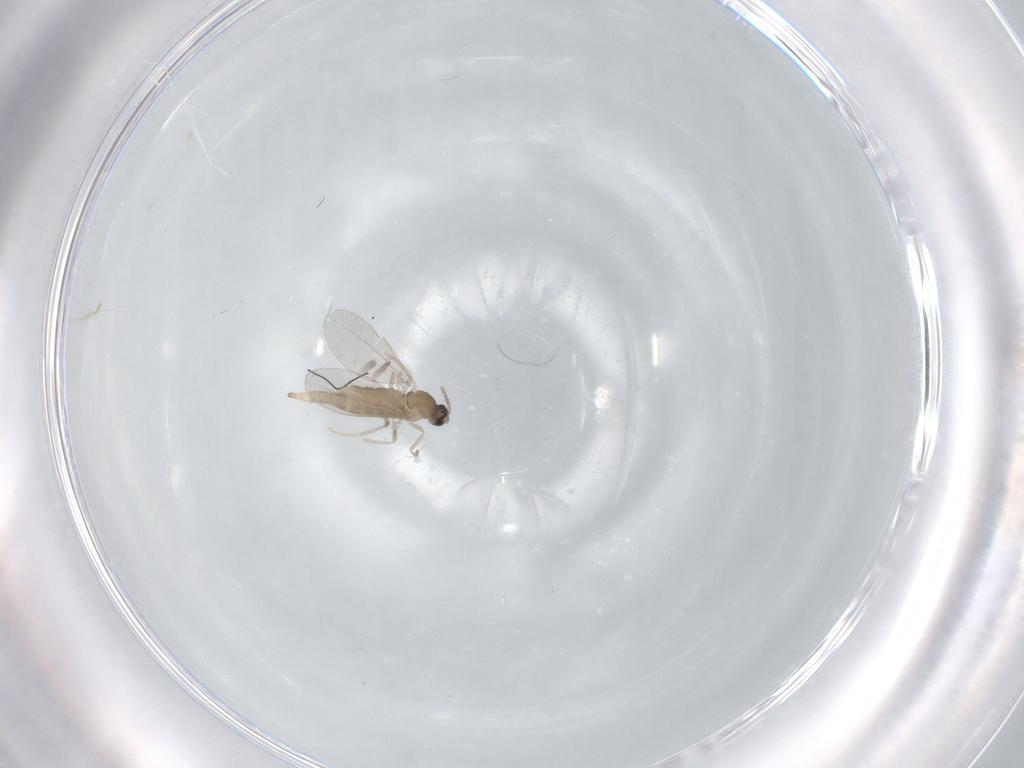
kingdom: Animalia
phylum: Arthropoda
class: Insecta
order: Diptera
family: Cecidomyiidae
